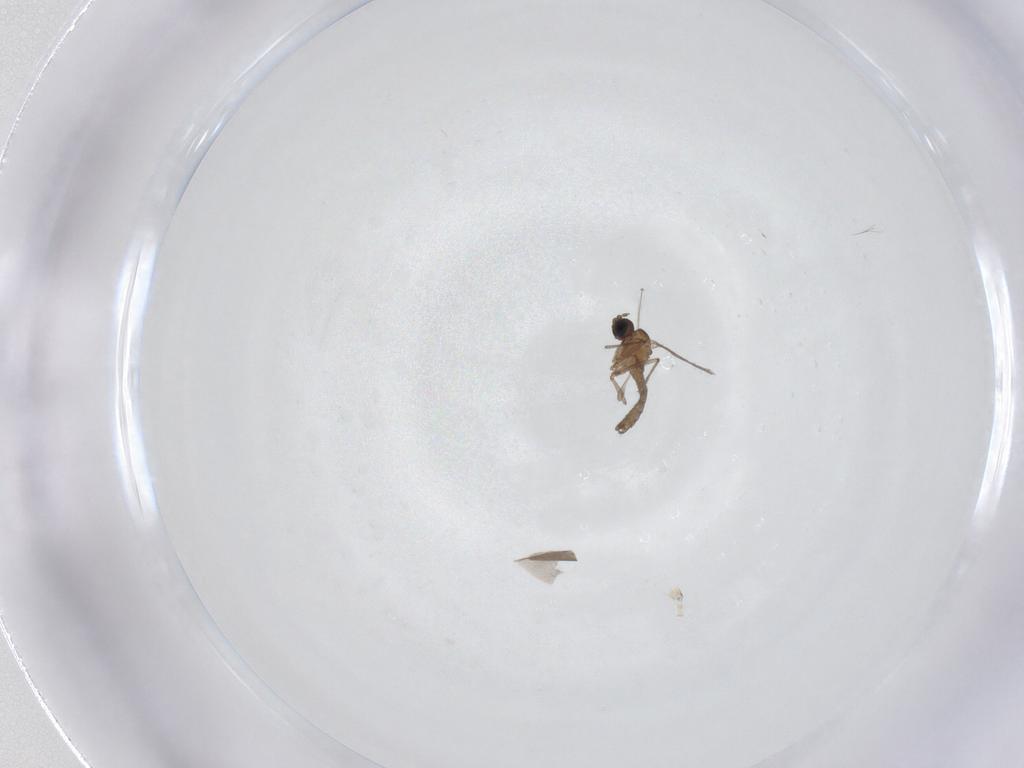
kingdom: Animalia
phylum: Arthropoda
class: Insecta
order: Diptera
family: Sciaridae
